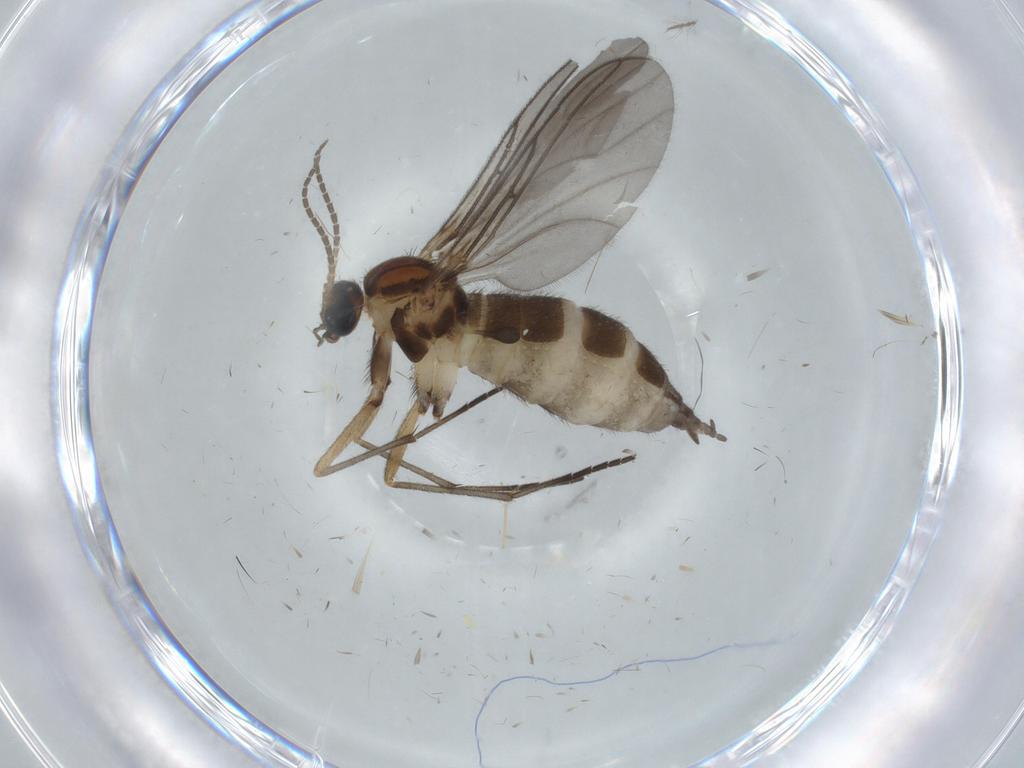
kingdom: Animalia
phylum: Arthropoda
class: Insecta
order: Diptera
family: Sciaridae
